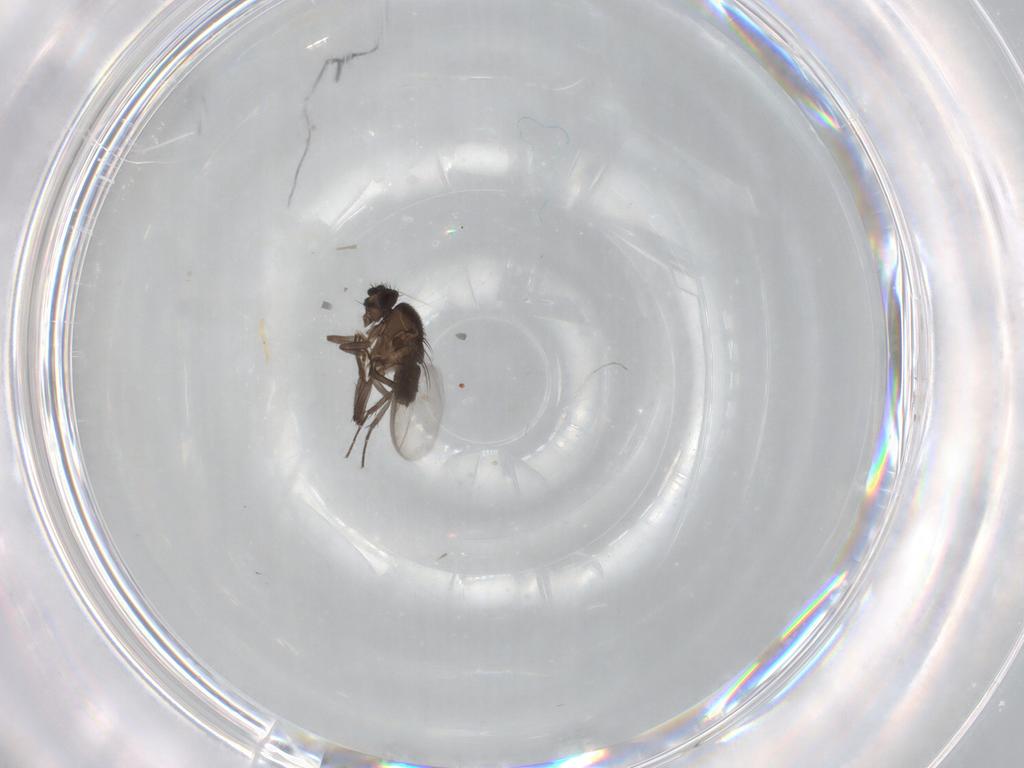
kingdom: Animalia
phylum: Arthropoda
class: Insecta
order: Diptera
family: Sphaeroceridae
